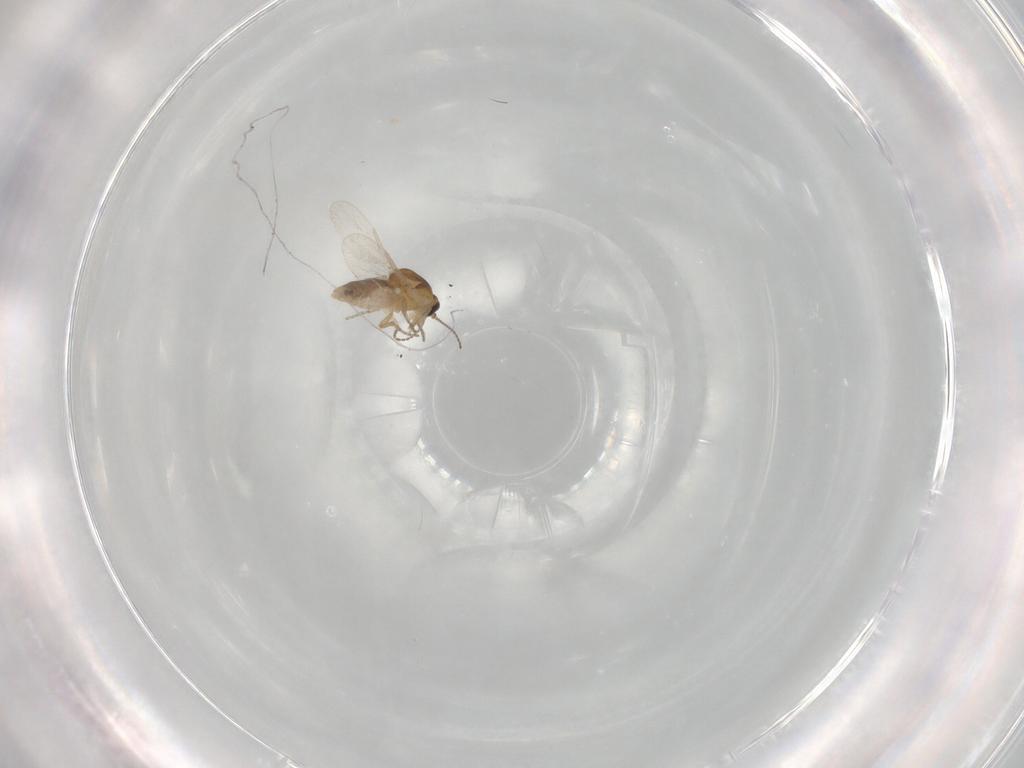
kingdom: Animalia
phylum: Arthropoda
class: Insecta
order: Diptera
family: Ceratopogonidae
